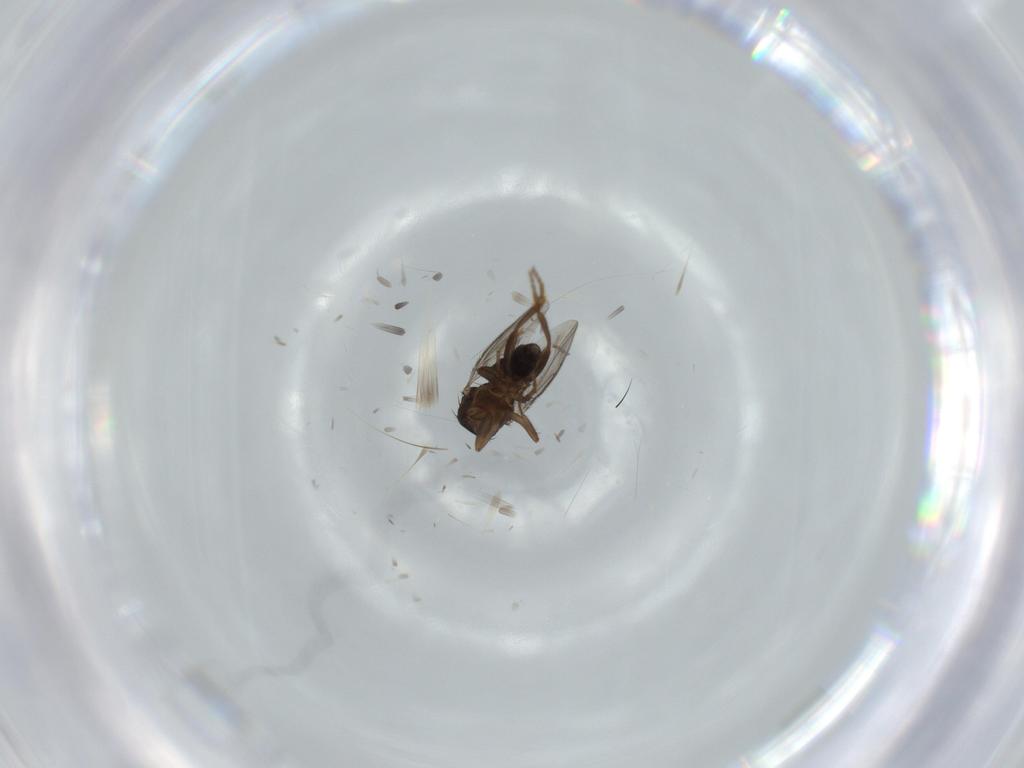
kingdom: Animalia
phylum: Arthropoda
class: Insecta
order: Diptera
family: Sphaeroceridae
